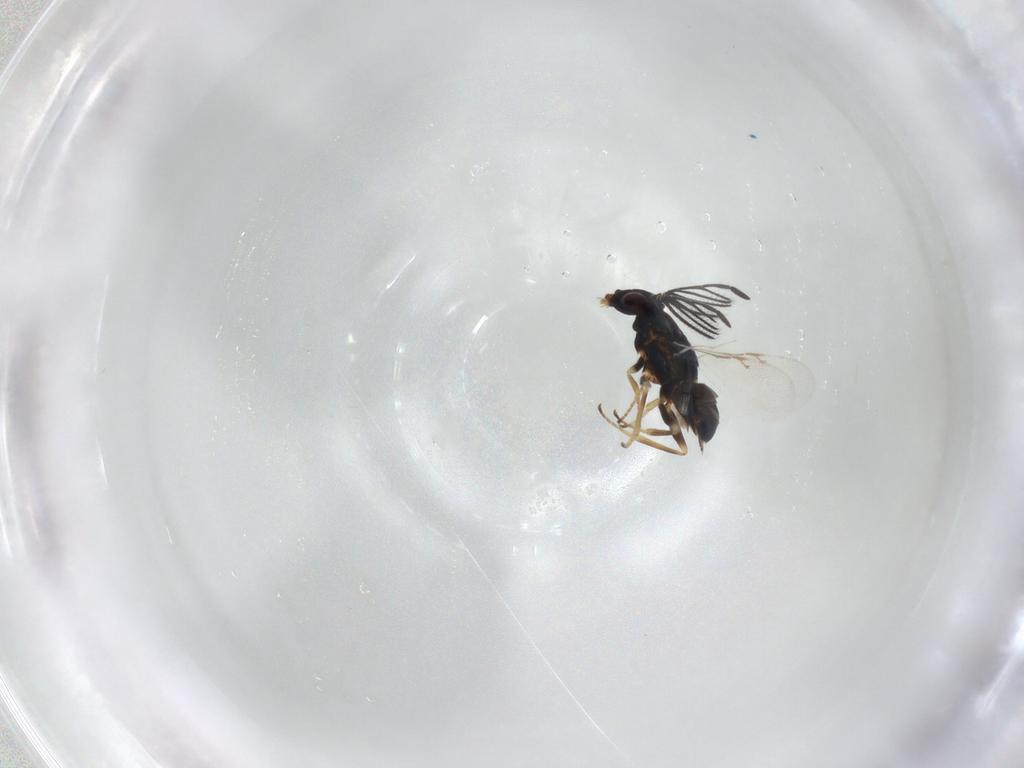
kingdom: Animalia
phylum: Arthropoda
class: Insecta
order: Hymenoptera
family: Encyrtidae
